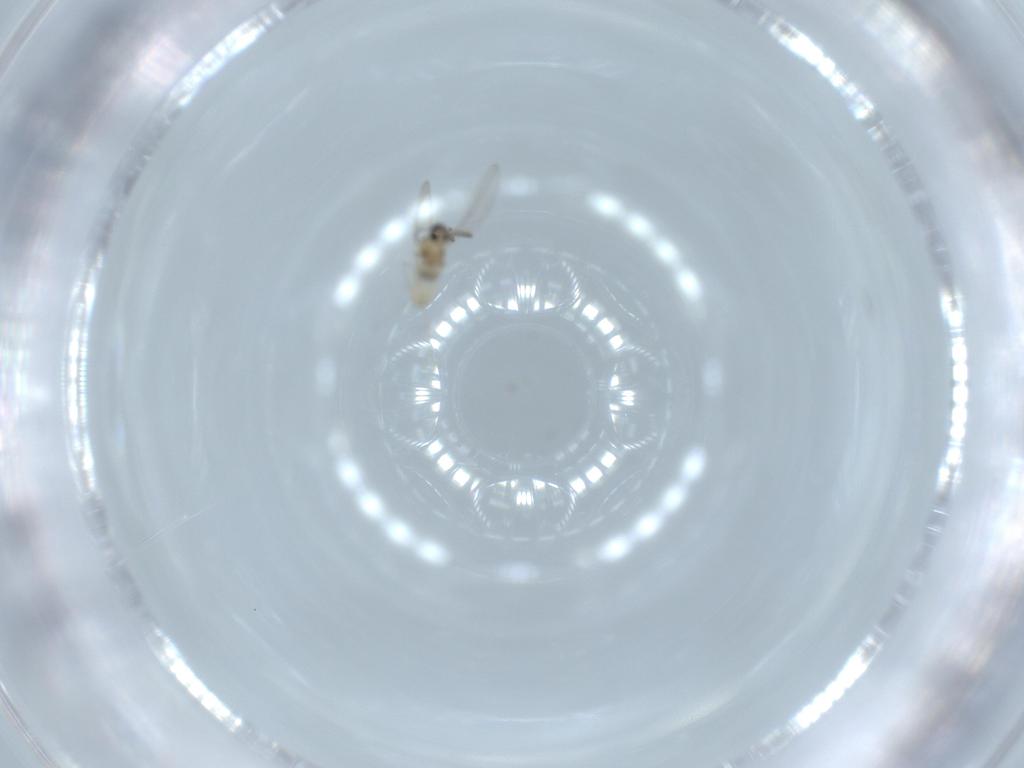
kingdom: Animalia
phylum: Arthropoda
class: Insecta
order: Diptera
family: Cecidomyiidae
